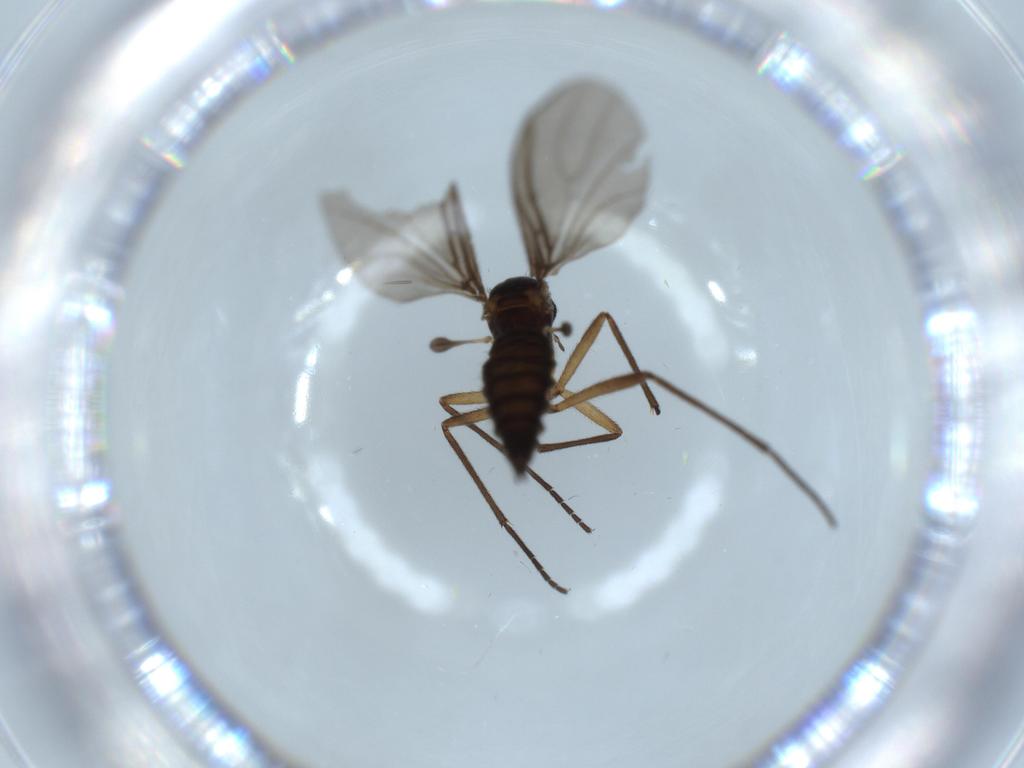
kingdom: Animalia
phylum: Arthropoda
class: Insecta
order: Diptera
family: Sciaridae
